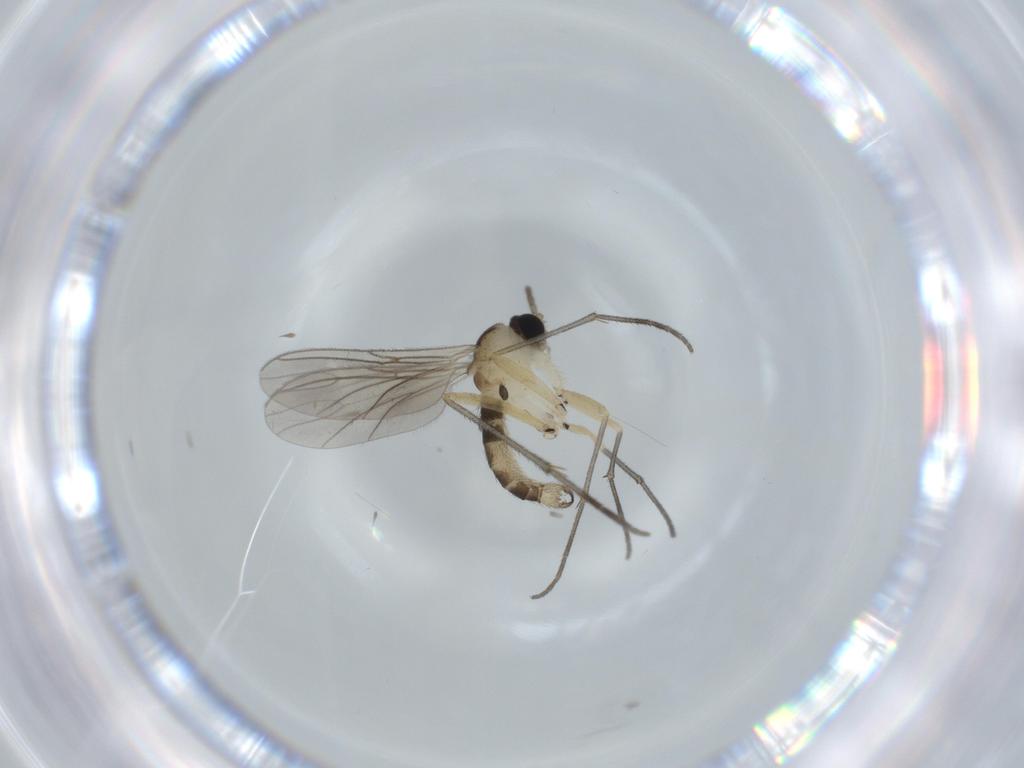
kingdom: Animalia
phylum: Arthropoda
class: Insecta
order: Diptera
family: Sciaridae
